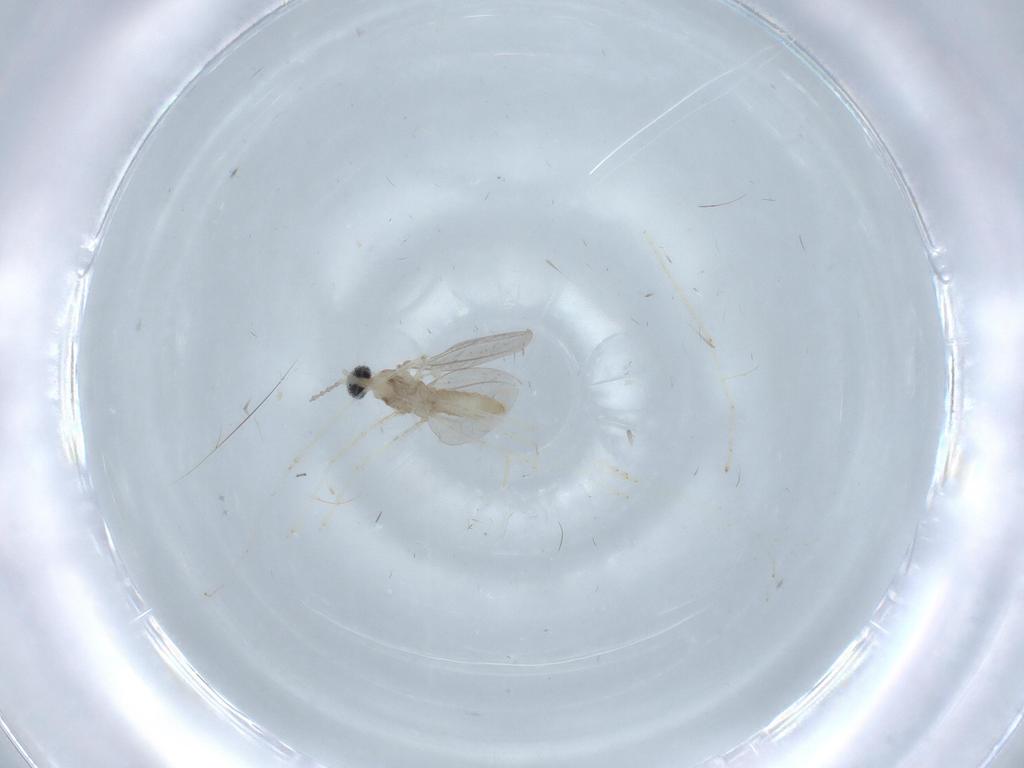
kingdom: Animalia
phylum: Arthropoda
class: Insecta
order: Diptera
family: Cecidomyiidae
